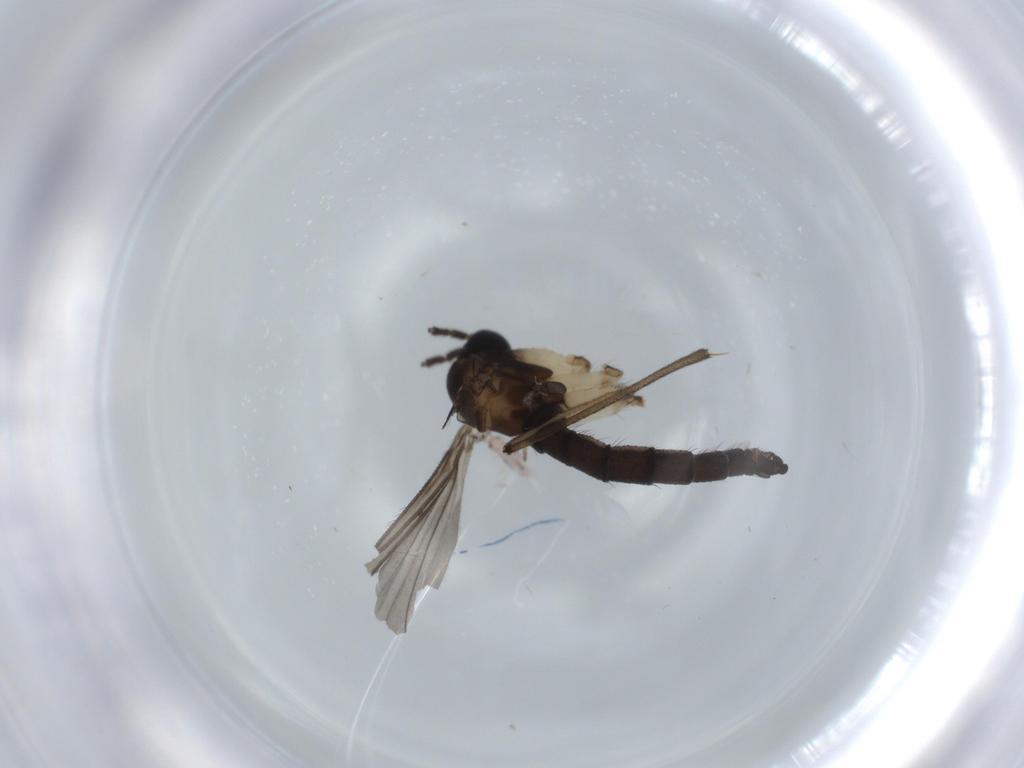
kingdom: Animalia
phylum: Arthropoda
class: Insecta
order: Diptera
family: Sciaridae
